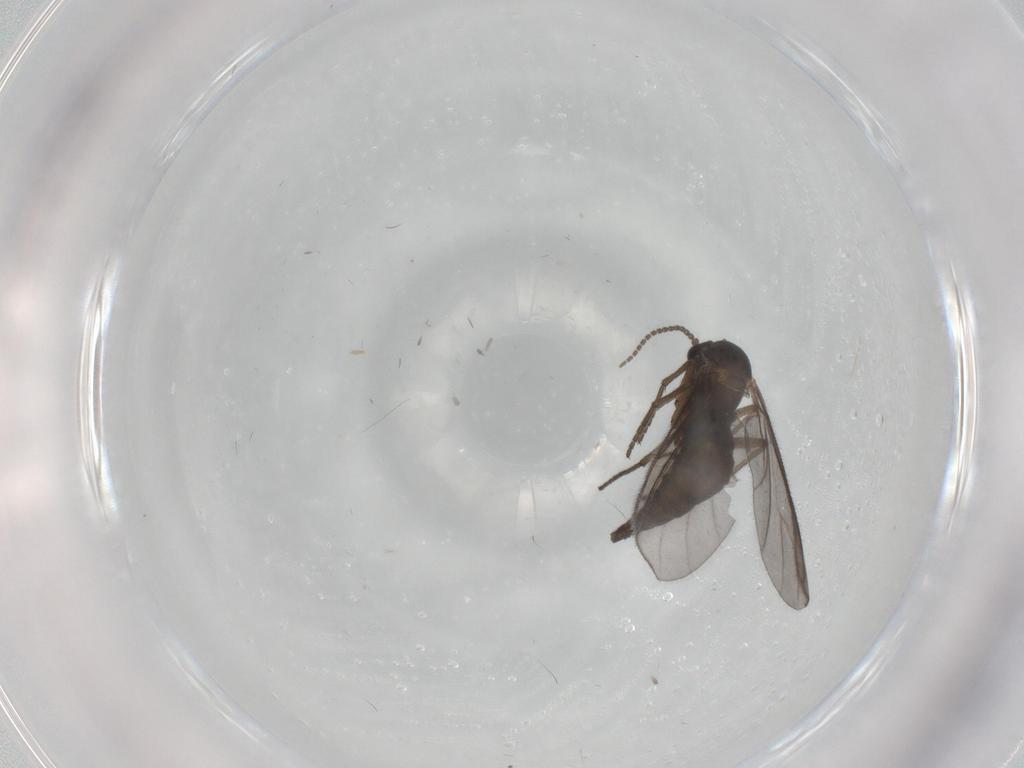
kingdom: Animalia
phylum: Arthropoda
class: Insecta
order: Diptera
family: Sciaridae
